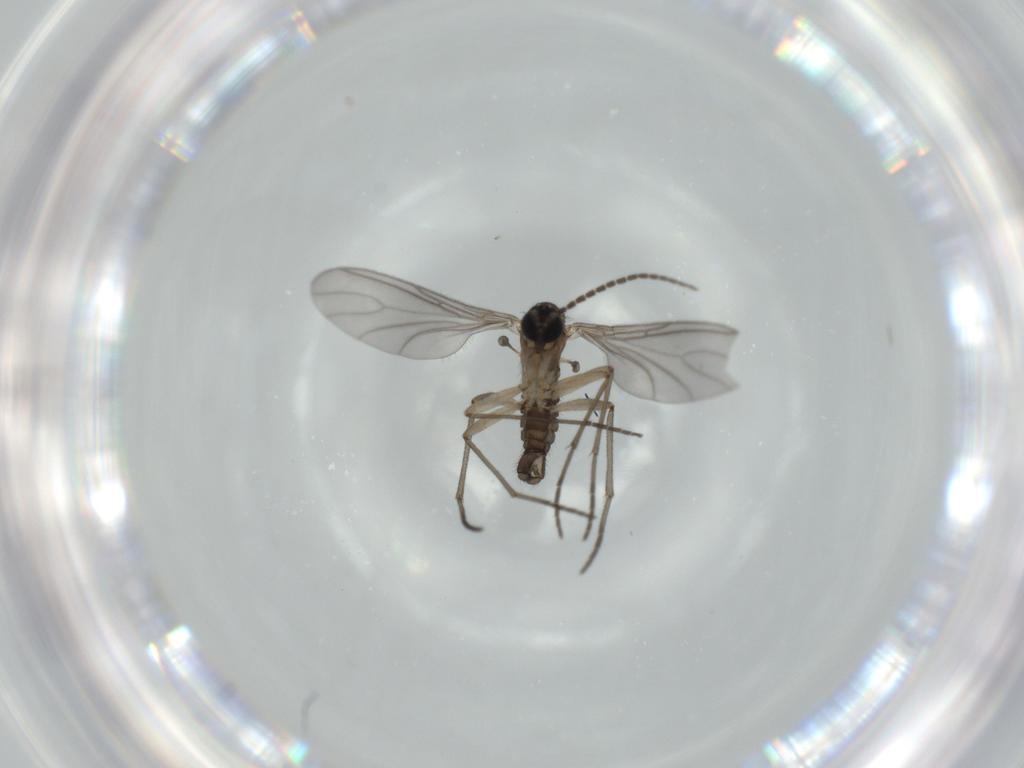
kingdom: Animalia
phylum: Arthropoda
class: Insecta
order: Diptera
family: Sciaridae
